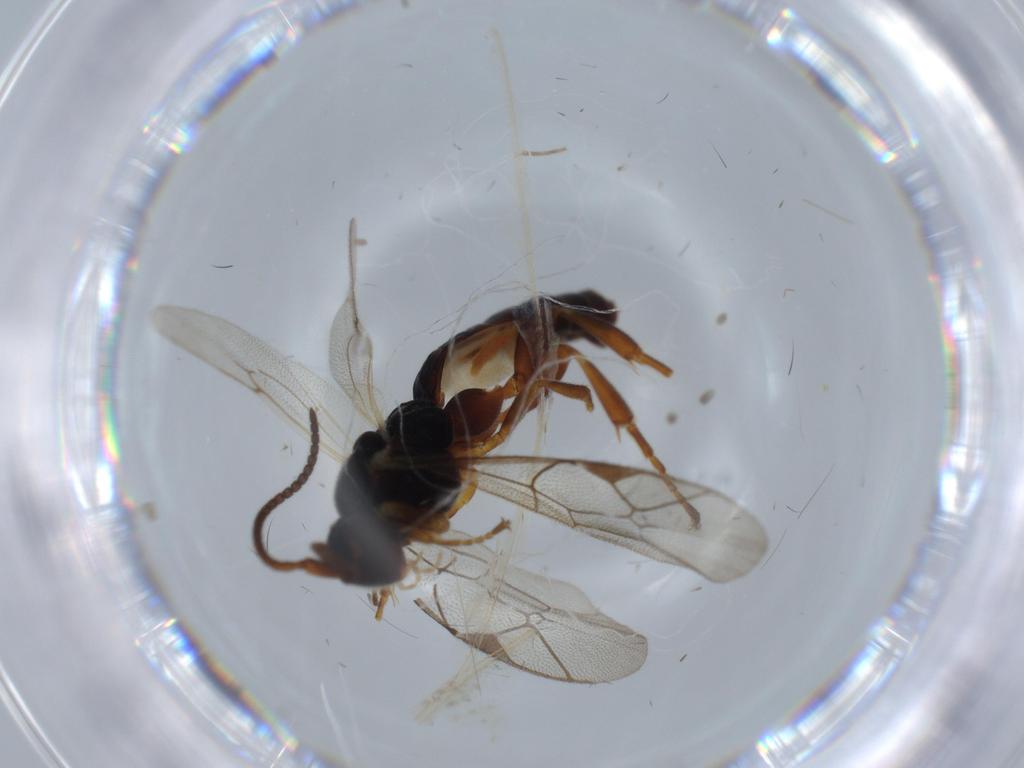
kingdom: Animalia
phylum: Arthropoda
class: Insecta
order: Hymenoptera
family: Ichneumonidae
